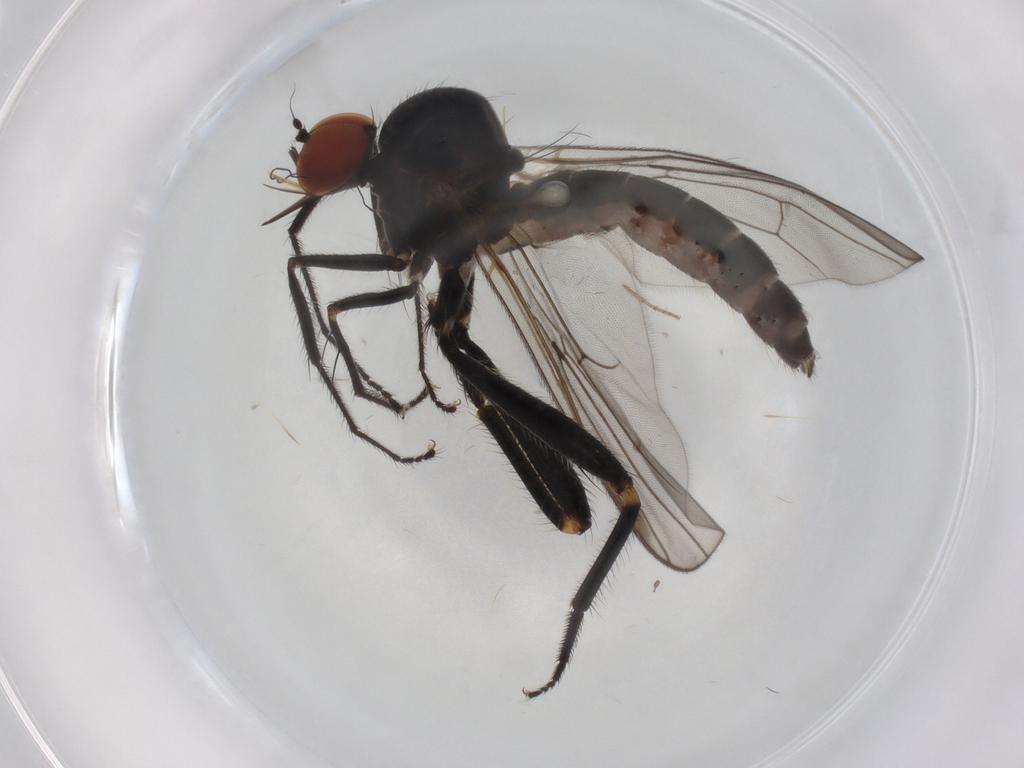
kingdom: Animalia
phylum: Arthropoda
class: Insecta
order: Diptera
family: Hybotidae
